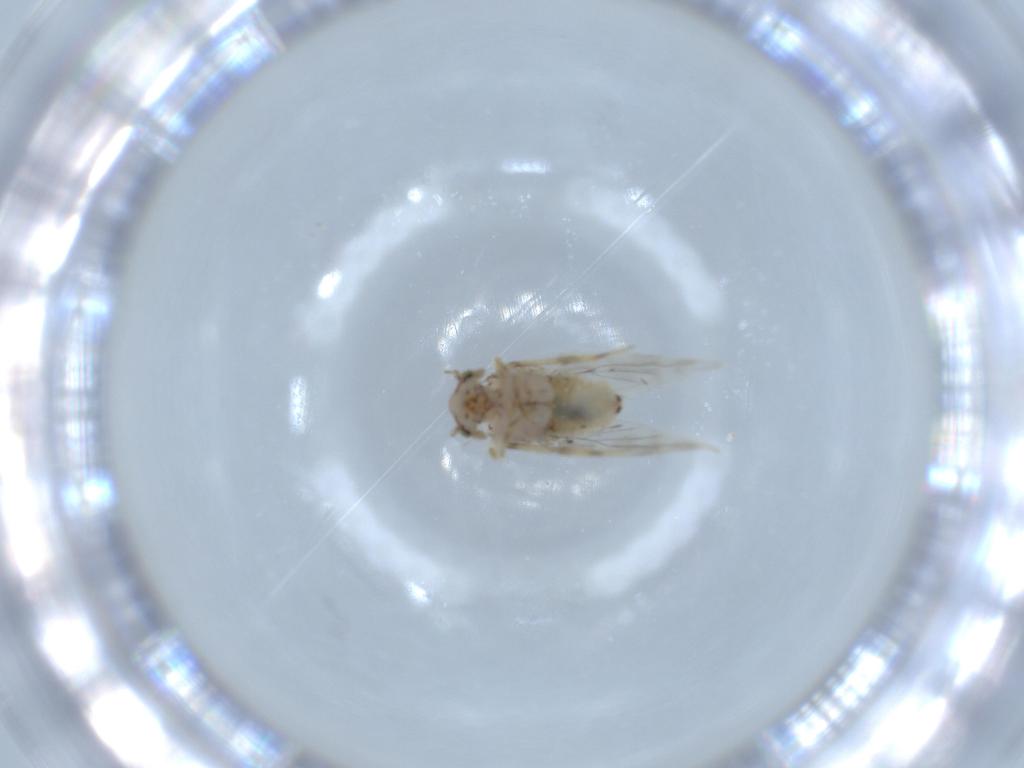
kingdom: Animalia
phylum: Arthropoda
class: Insecta
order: Psocodea
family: Lepidopsocidae
